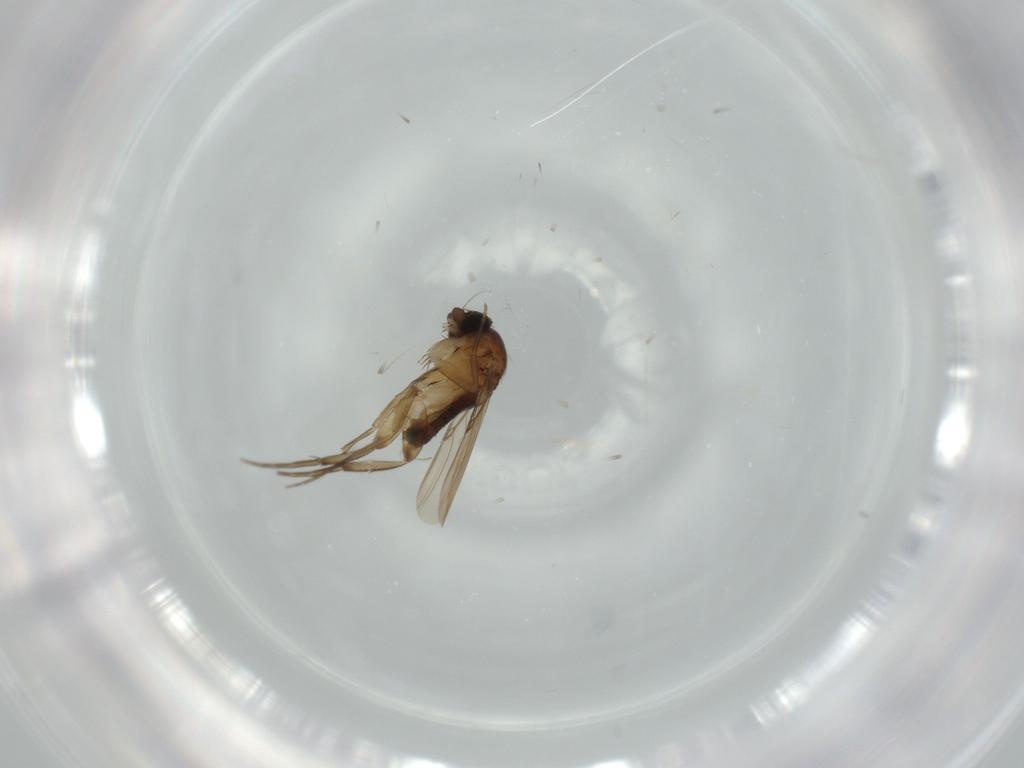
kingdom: Animalia
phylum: Arthropoda
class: Insecta
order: Diptera
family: Phoridae
